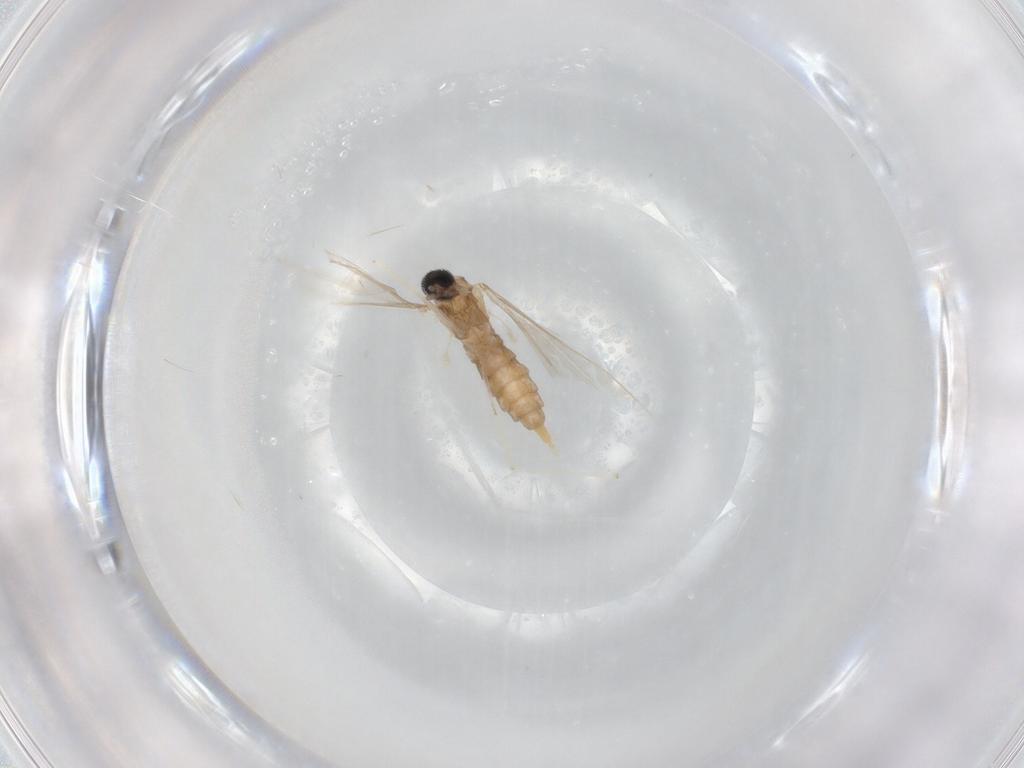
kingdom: Animalia
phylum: Arthropoda
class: Insecta
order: Diptera
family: Cecidomyiidae
